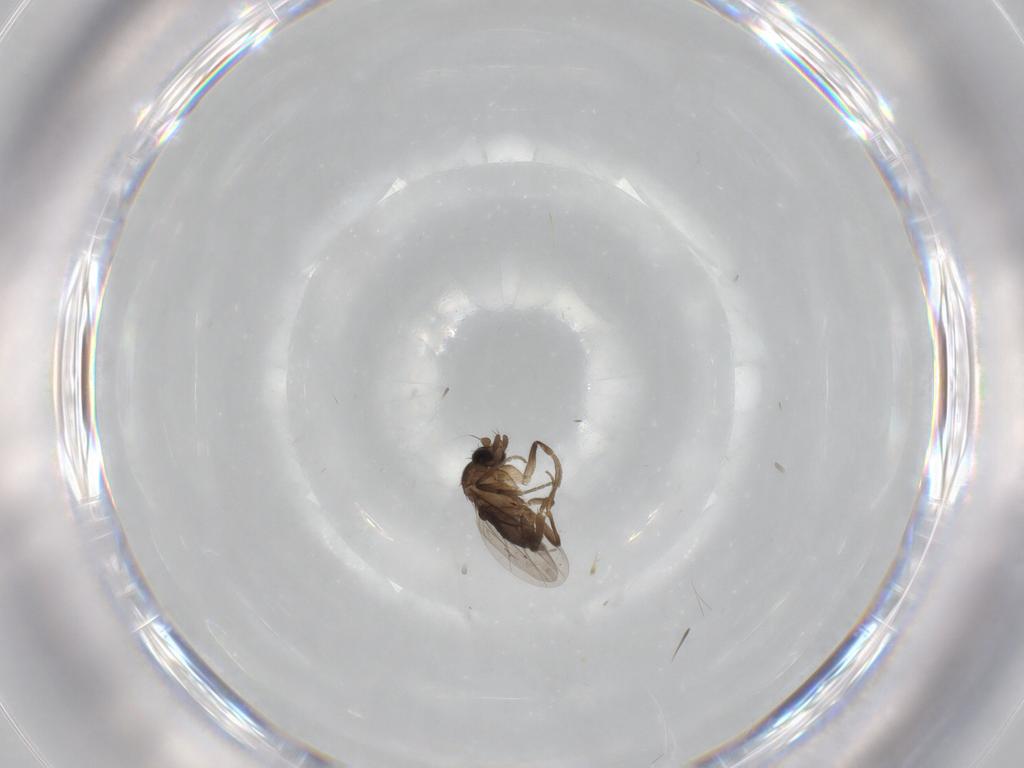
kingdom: Animalia
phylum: Arthropoda
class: Insecta
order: Diptera
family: Phoridae
